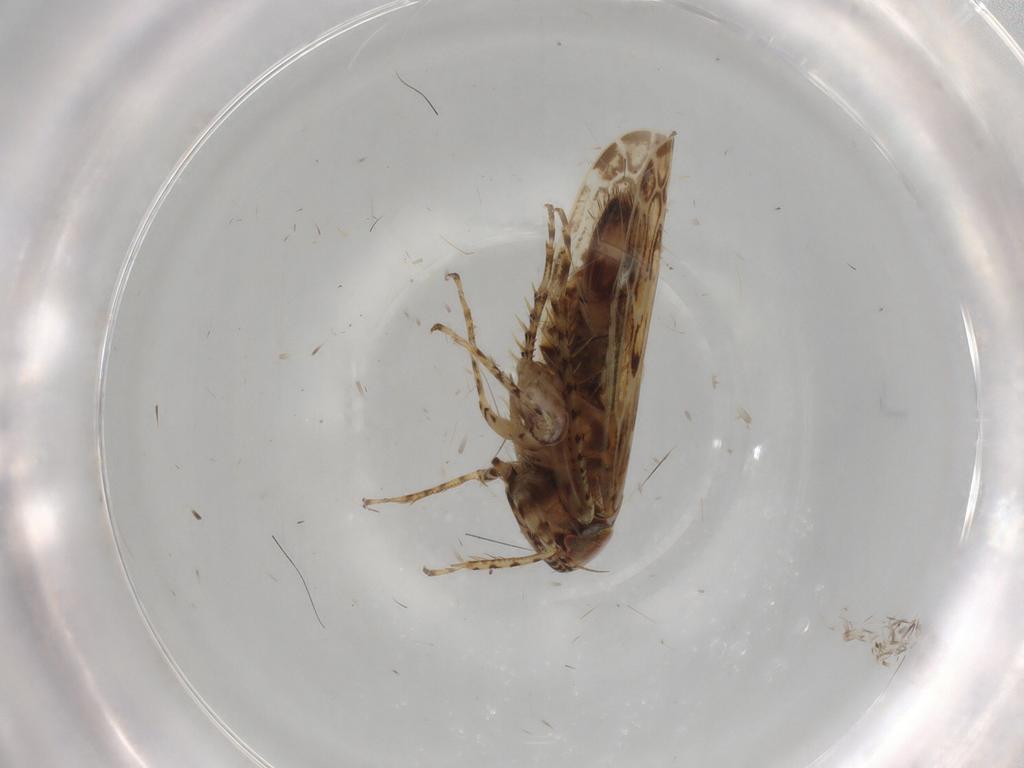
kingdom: Animalia
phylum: Arthropoda
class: Insecta
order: Hemiptera
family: Cicadellidae
